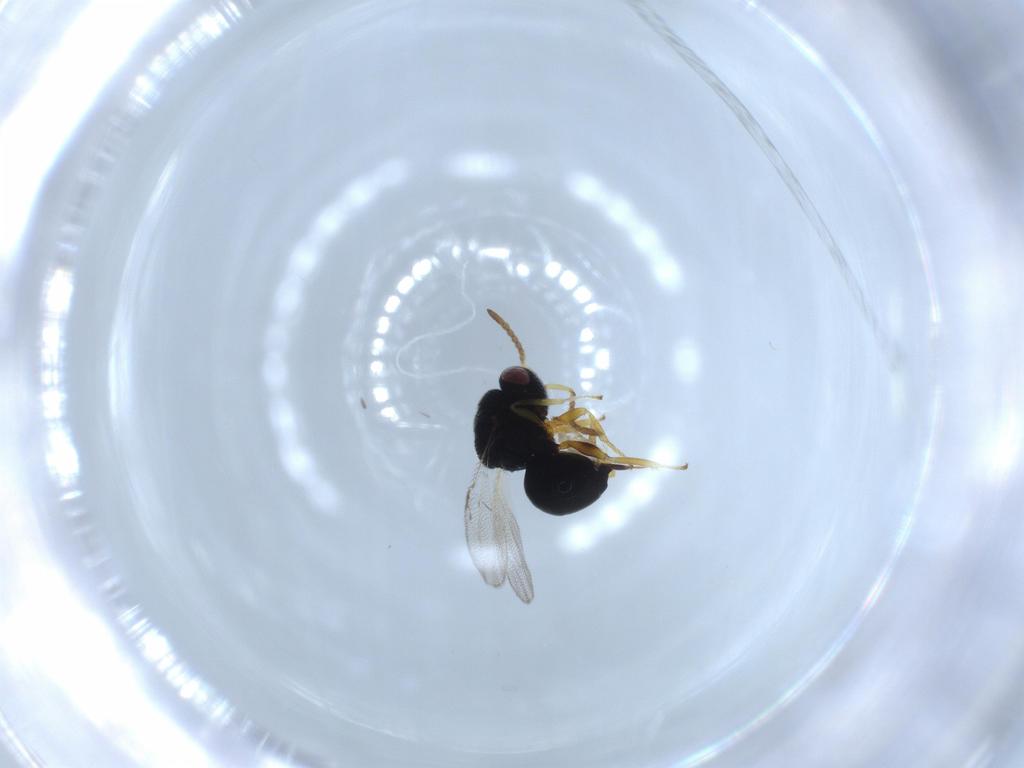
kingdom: Animalia
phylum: Arthropoda
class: Insecta
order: Hymenoptera
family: Eurytomidae
